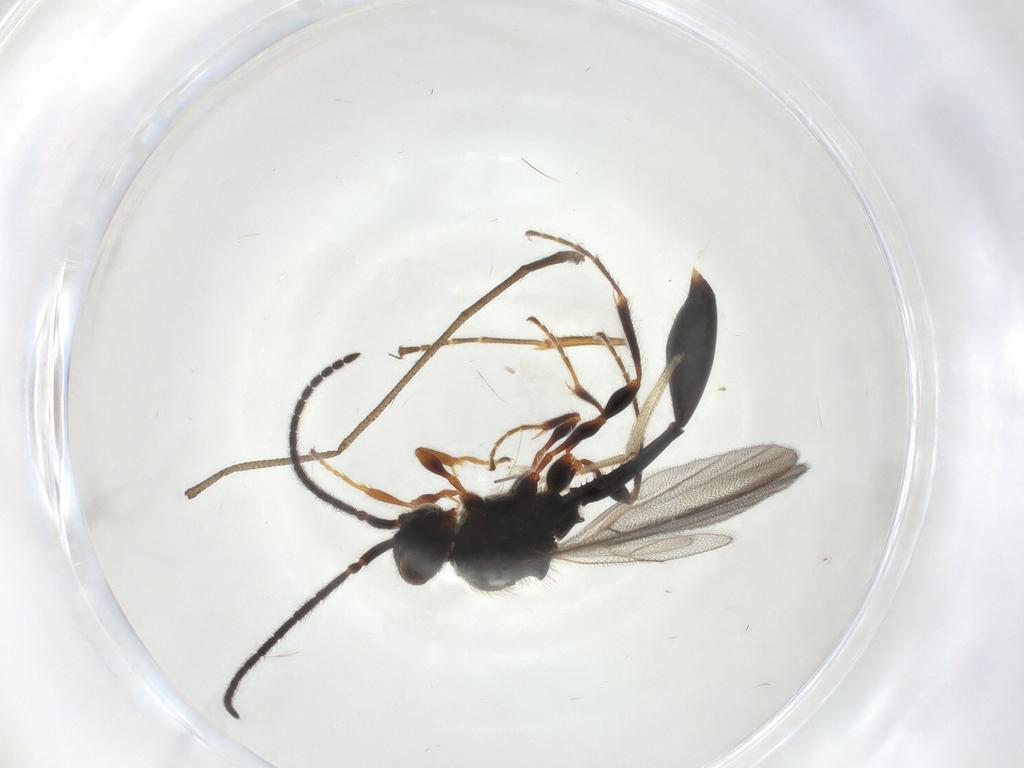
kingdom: Animalia
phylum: Arthropoda
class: Insecta
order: Hymenoptera
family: Diapriidae
